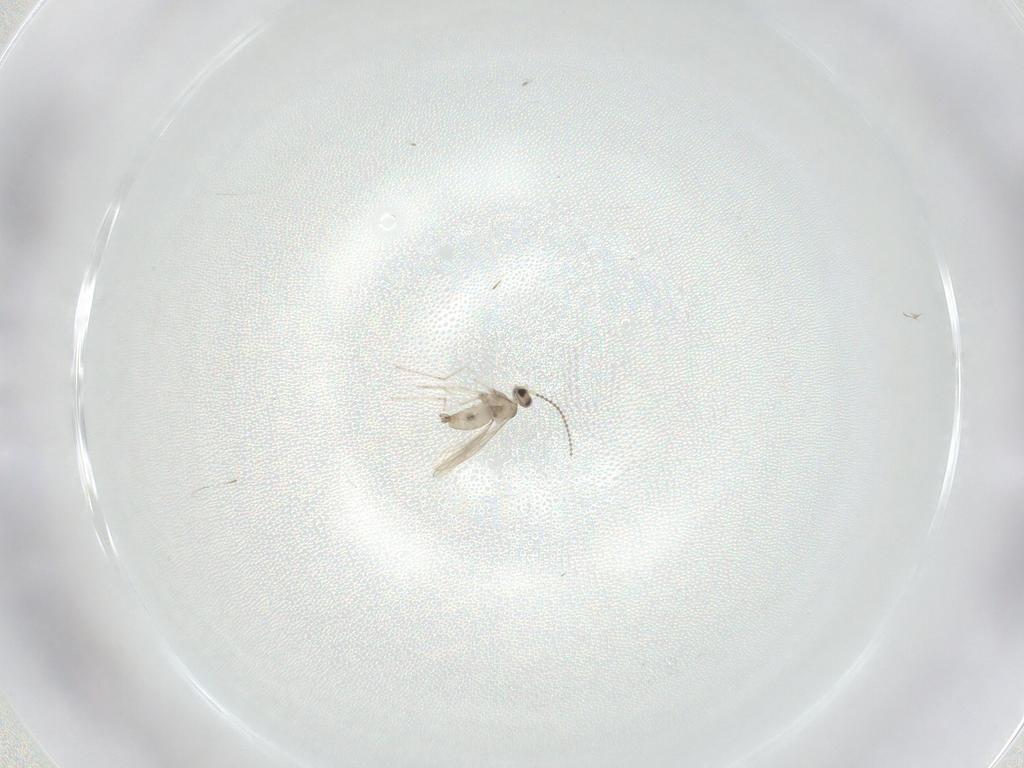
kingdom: Animalia
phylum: Arthropoda
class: Insecta
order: Diptera
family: Cecidomyiidae
